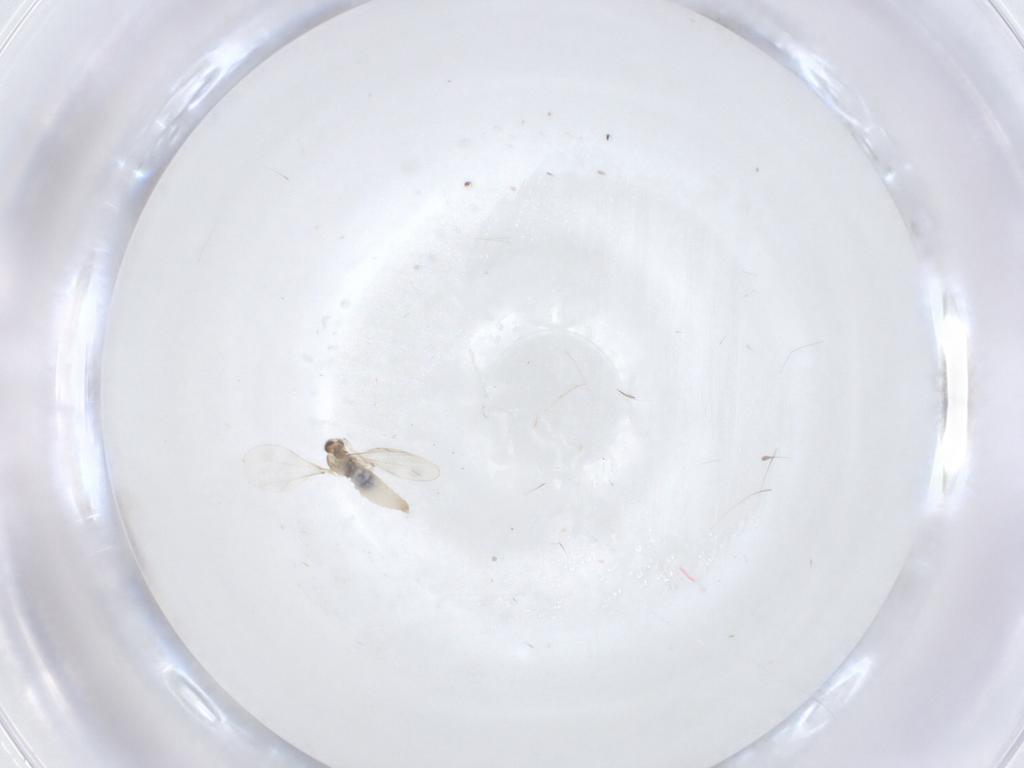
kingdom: Animalia
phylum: Arthropoda
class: Insecta
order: Diptera
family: Cecidomyiidae
